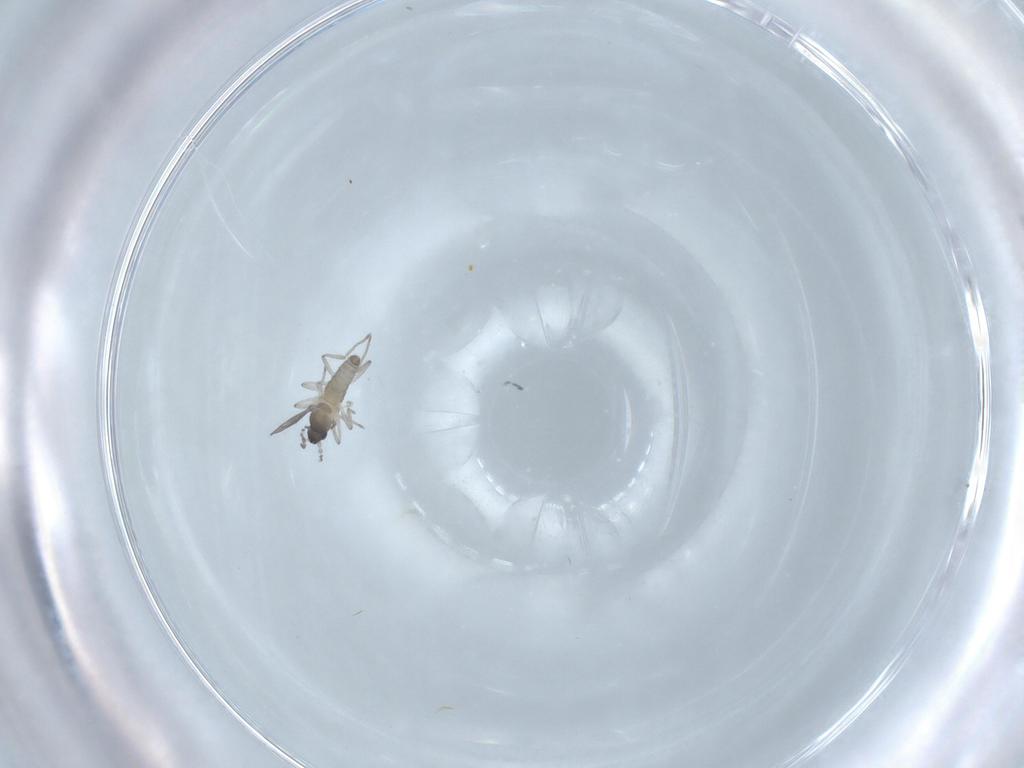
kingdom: Animalia
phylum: Arthropoda
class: Insecta
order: Diptera
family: Cecidomyiidae
